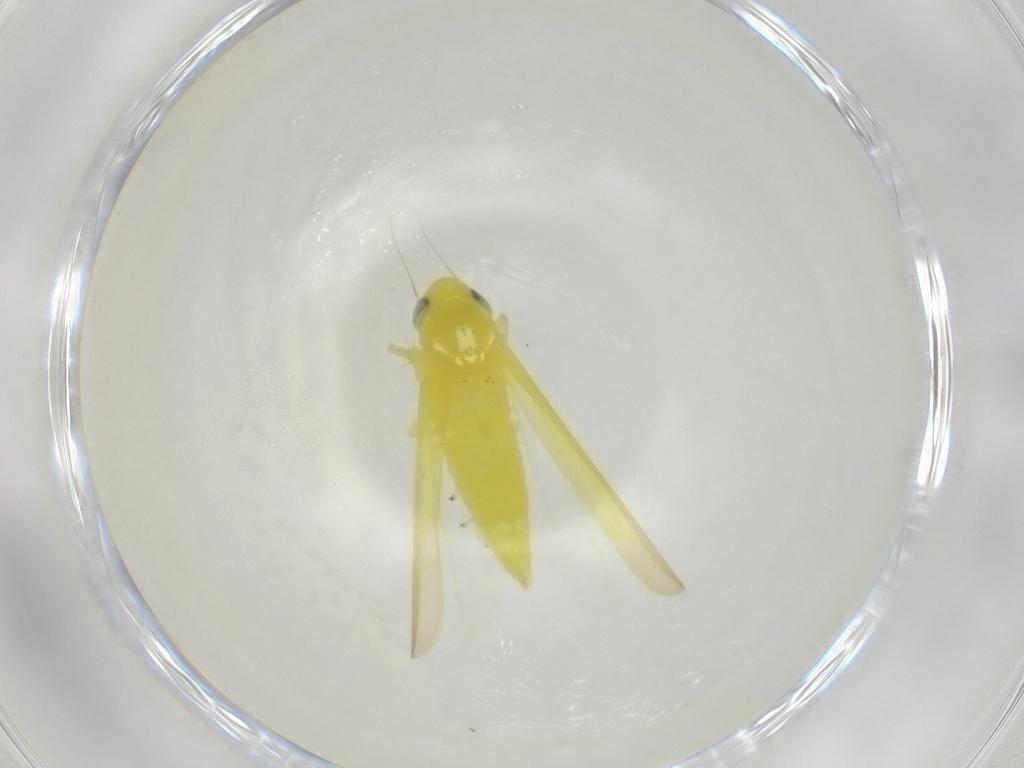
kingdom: Animalia
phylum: Arthropoda
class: Insecta
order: Hemiptera
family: Cicadellidae
